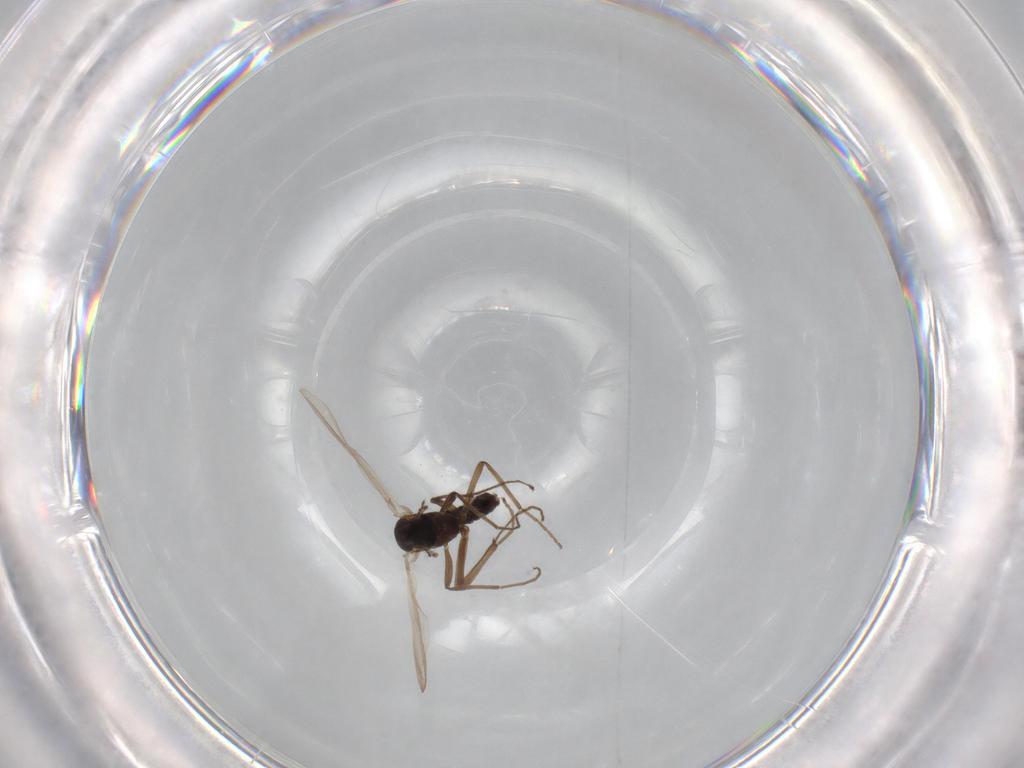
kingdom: Animalia
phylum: Arthropoda
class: Insecta
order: Diptera
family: Chironomidae
